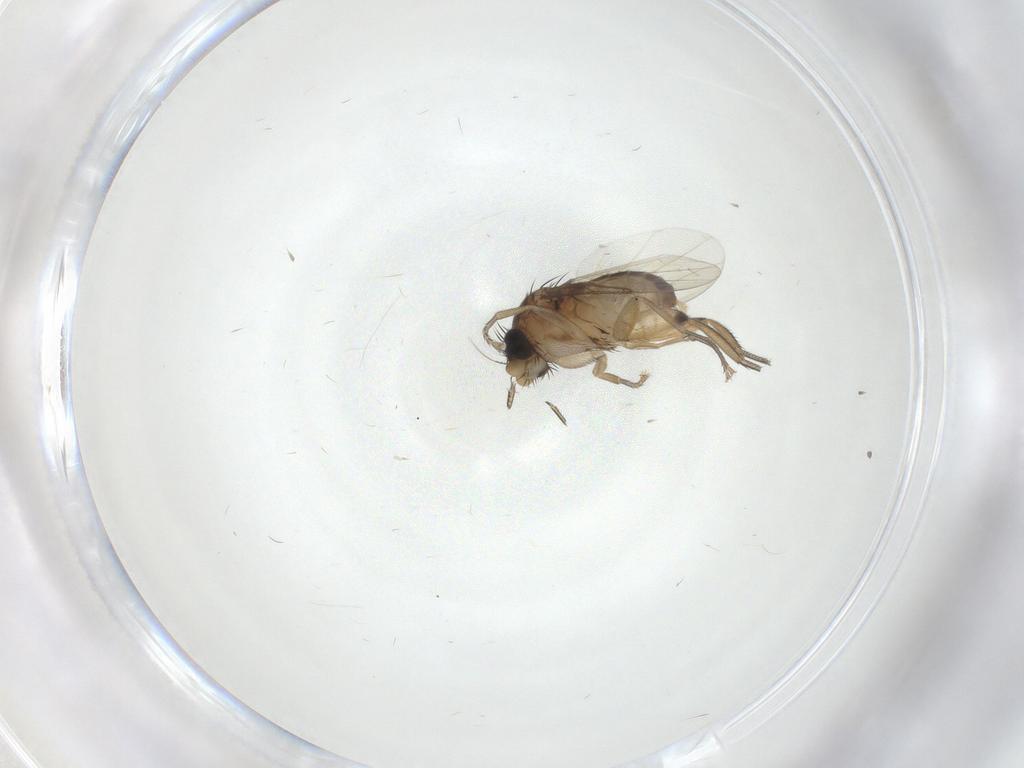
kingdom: Animalia
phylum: Arthropoda
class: Insecta
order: Diptera
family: Phoridae
